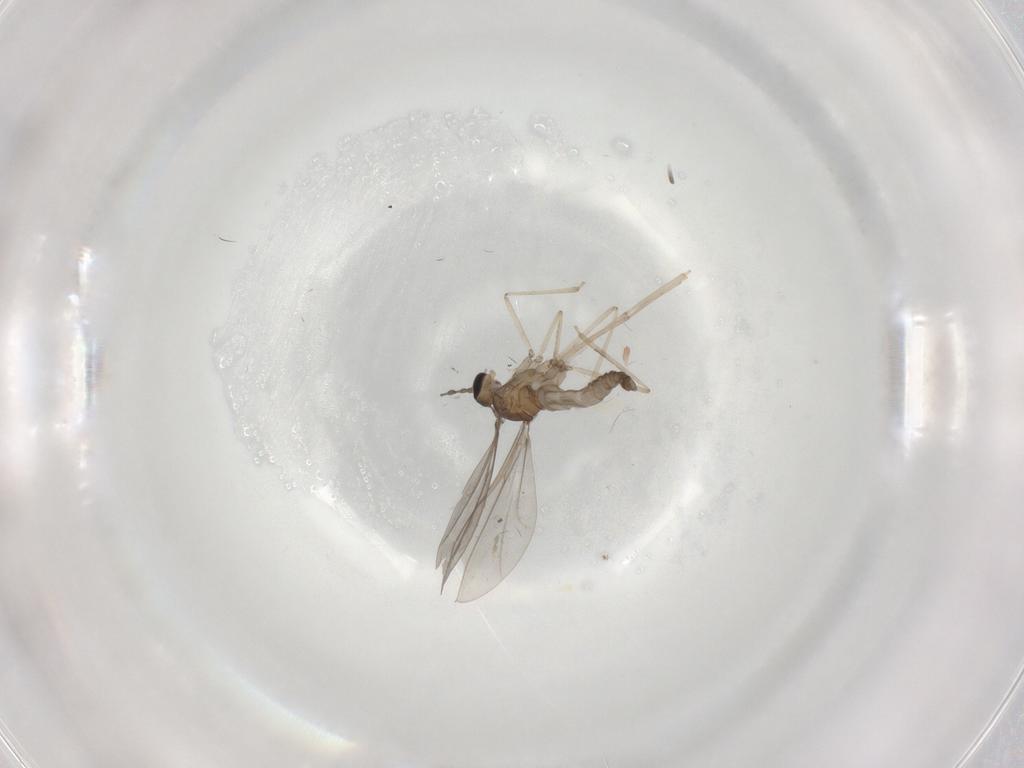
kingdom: Animalia
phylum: Arthropoda
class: Insecta
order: Diptera
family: Cecidomyiidae
